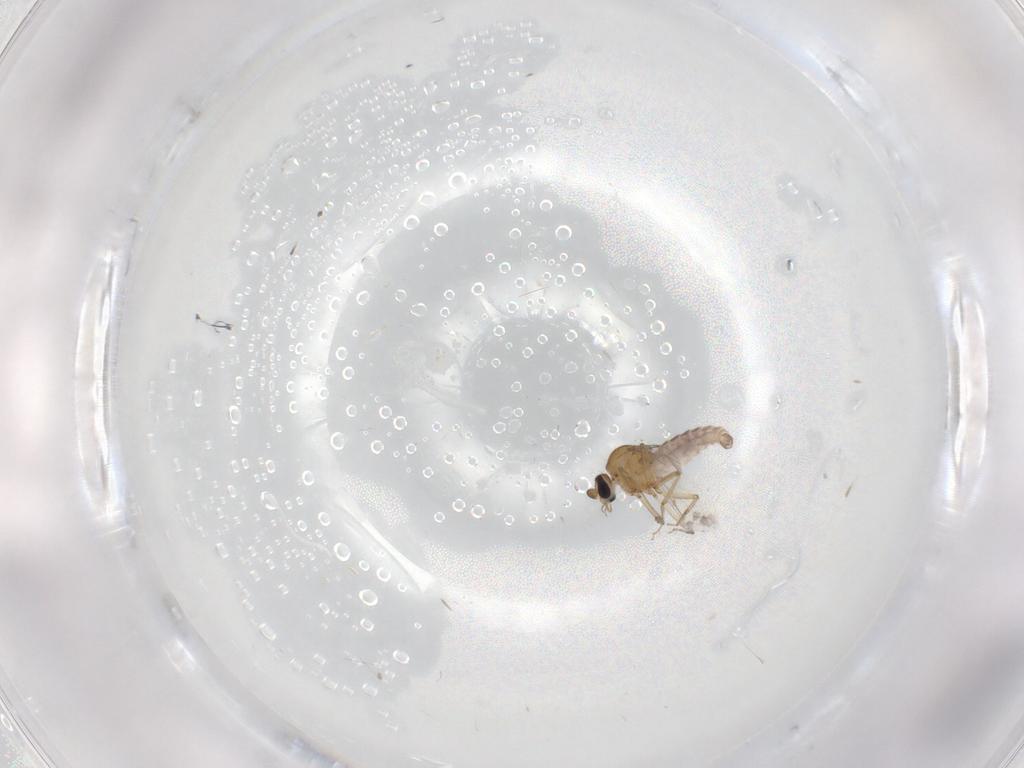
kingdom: Animalia
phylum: Arthropoda
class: Insecta
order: Diptera
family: Ceratopogonidae
